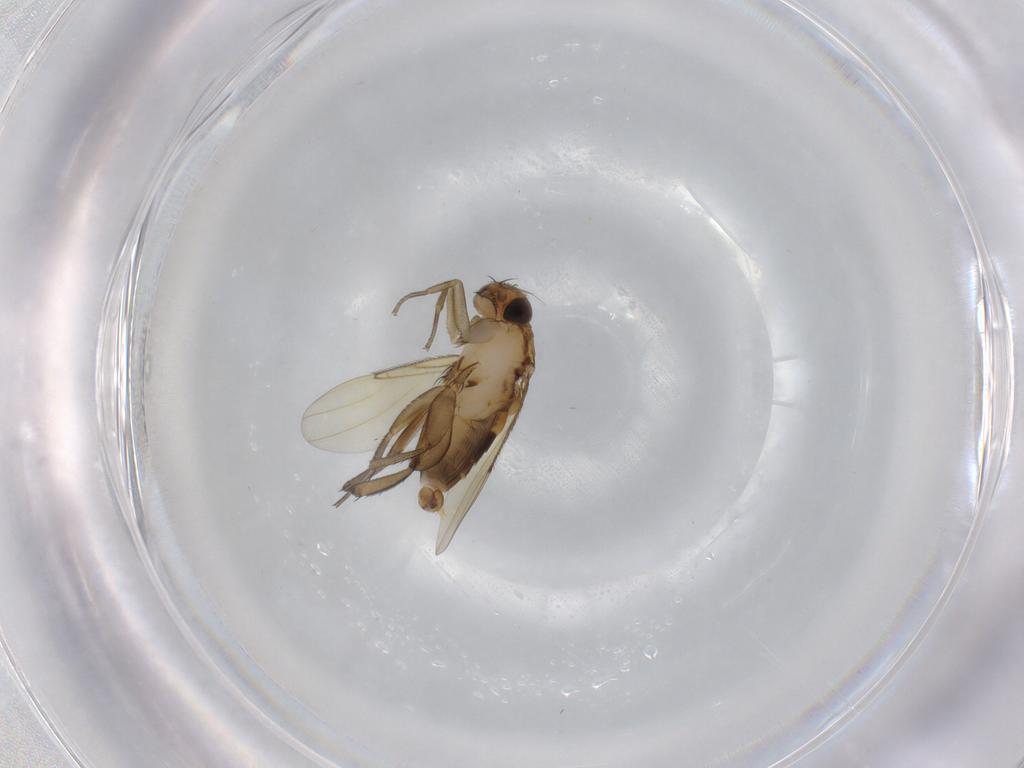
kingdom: Animalia
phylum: Arthropoda
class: Insecta
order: Diptera
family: Phoridae
